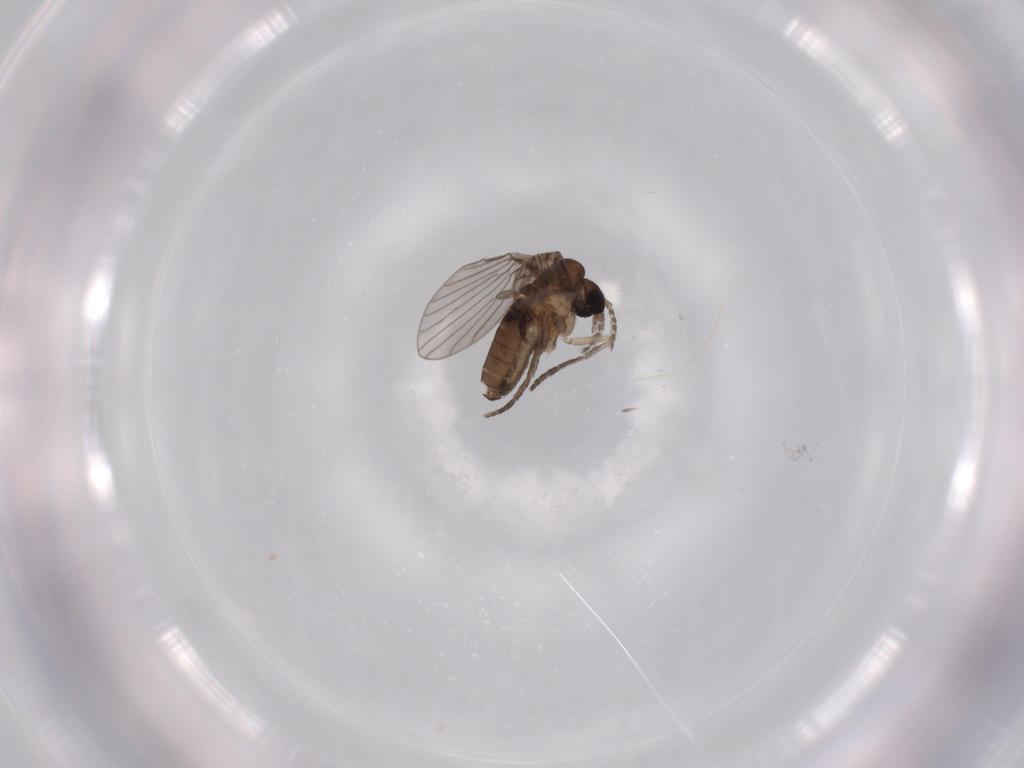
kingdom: Animalia
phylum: Arthropoda
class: Insecta
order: Diptera
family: Psychodidae
